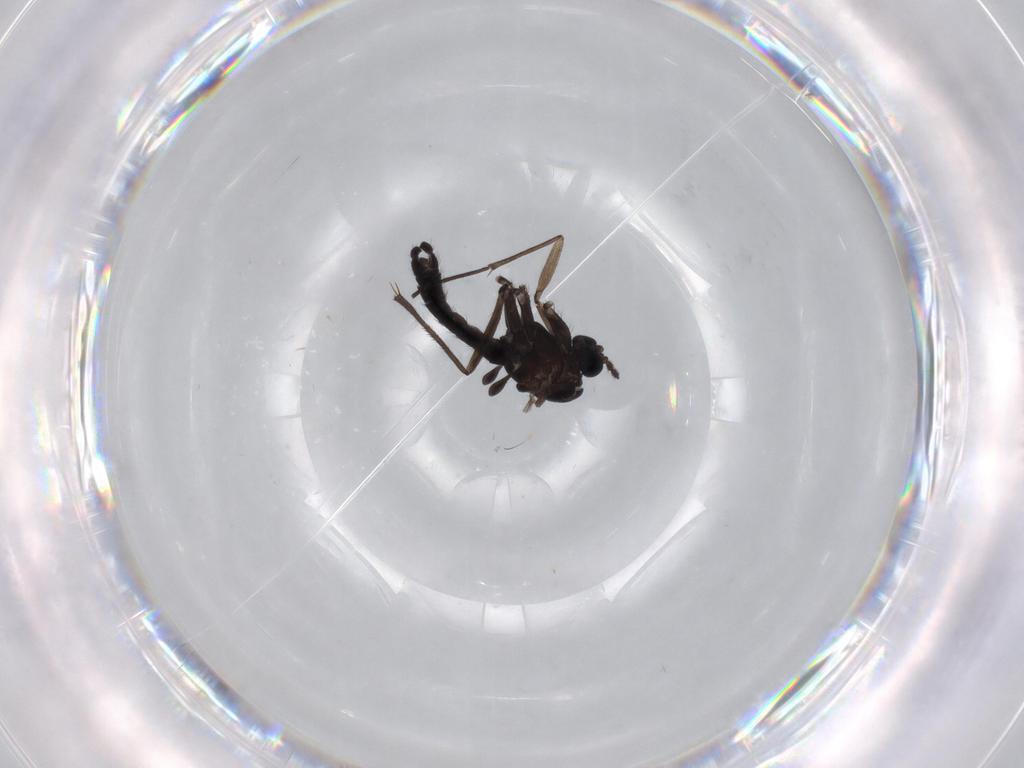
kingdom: Animalia
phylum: Arthropoda
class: Insecta
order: Diptera
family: Sciaridae
